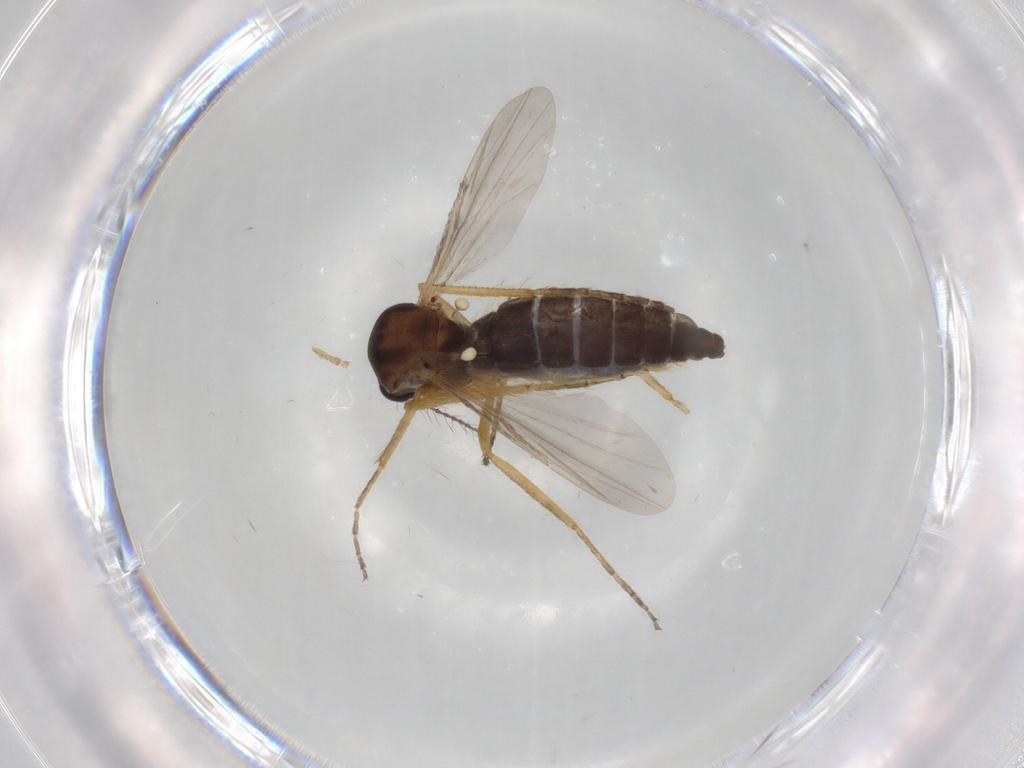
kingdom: Animalia
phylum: Arthropoda
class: Insecta
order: Diptera
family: Ceratopogonidae
